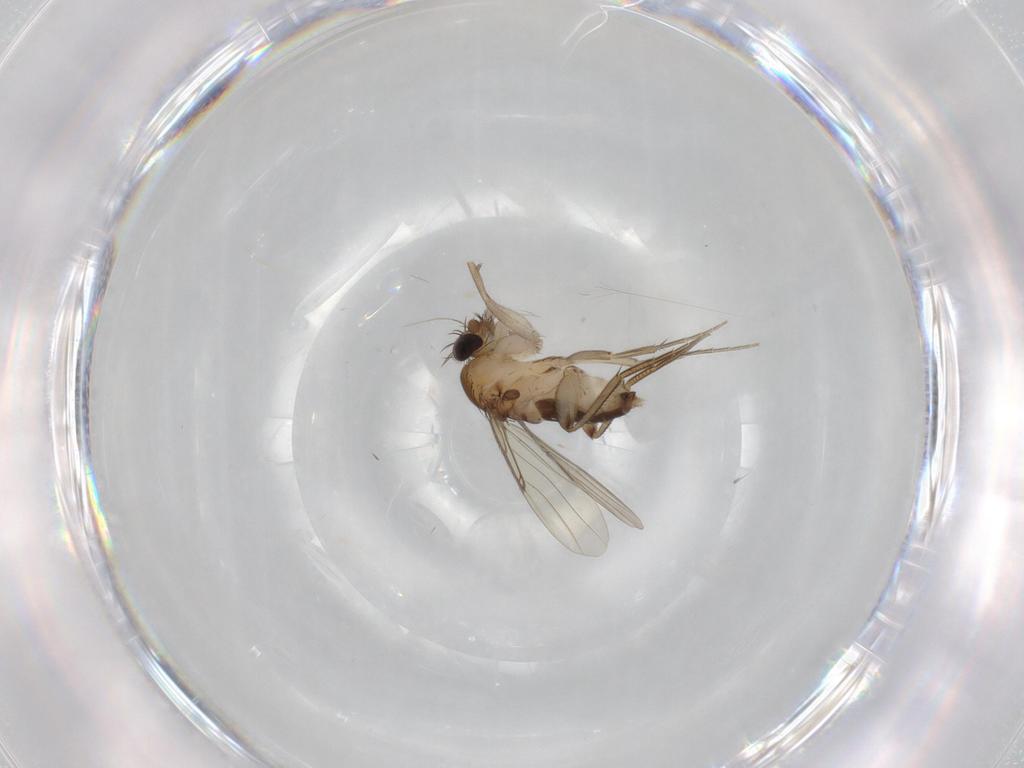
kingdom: Animalia
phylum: Arthropoda
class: Insecta
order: Diptera
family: Phoridae
